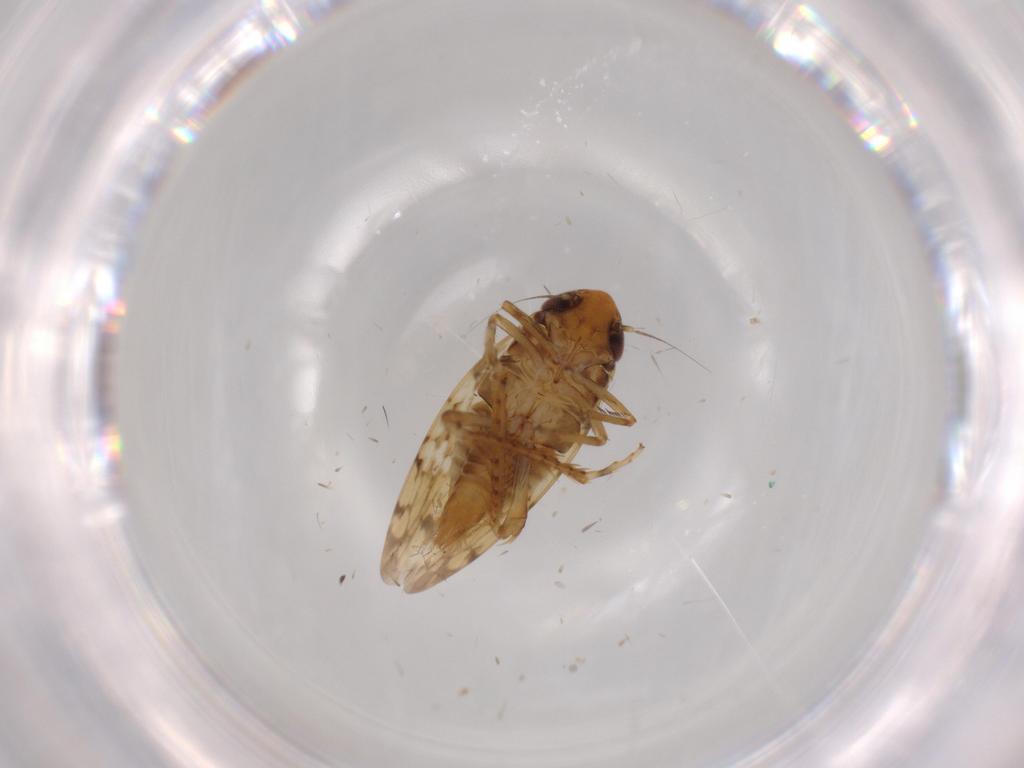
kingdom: Animalia
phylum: Arthropoda
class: Insecta
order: Hemiptera
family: Cicadellidae
